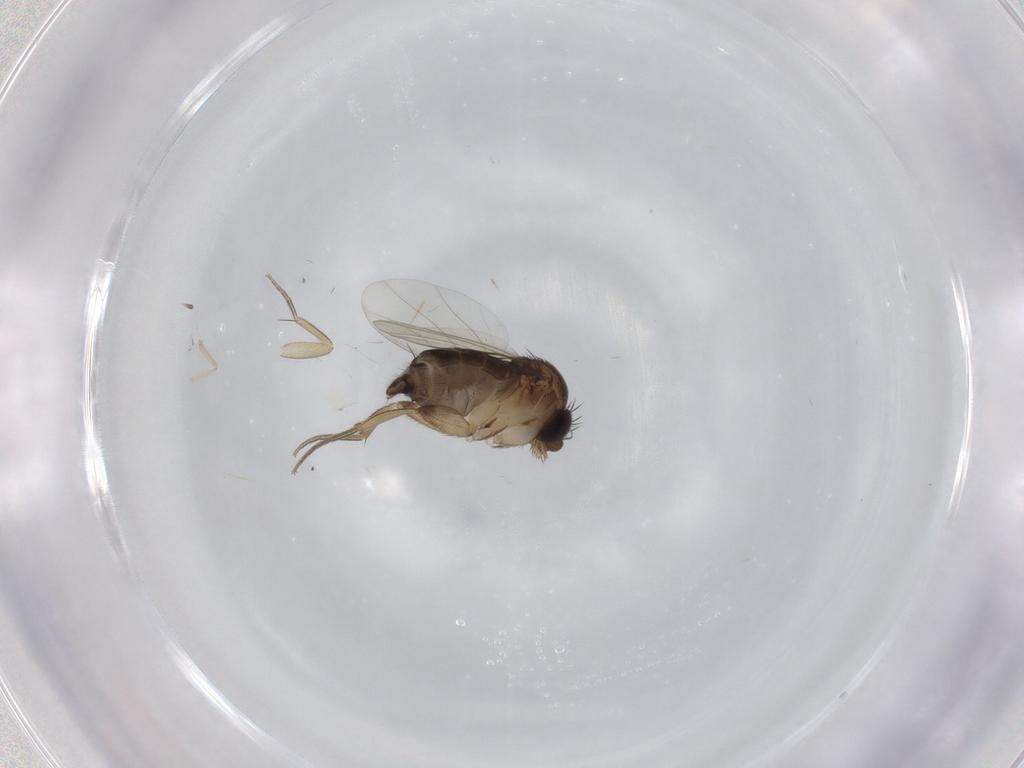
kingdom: Animalia
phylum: Arthropoda
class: Insecta
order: Diptera
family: Phoridae
